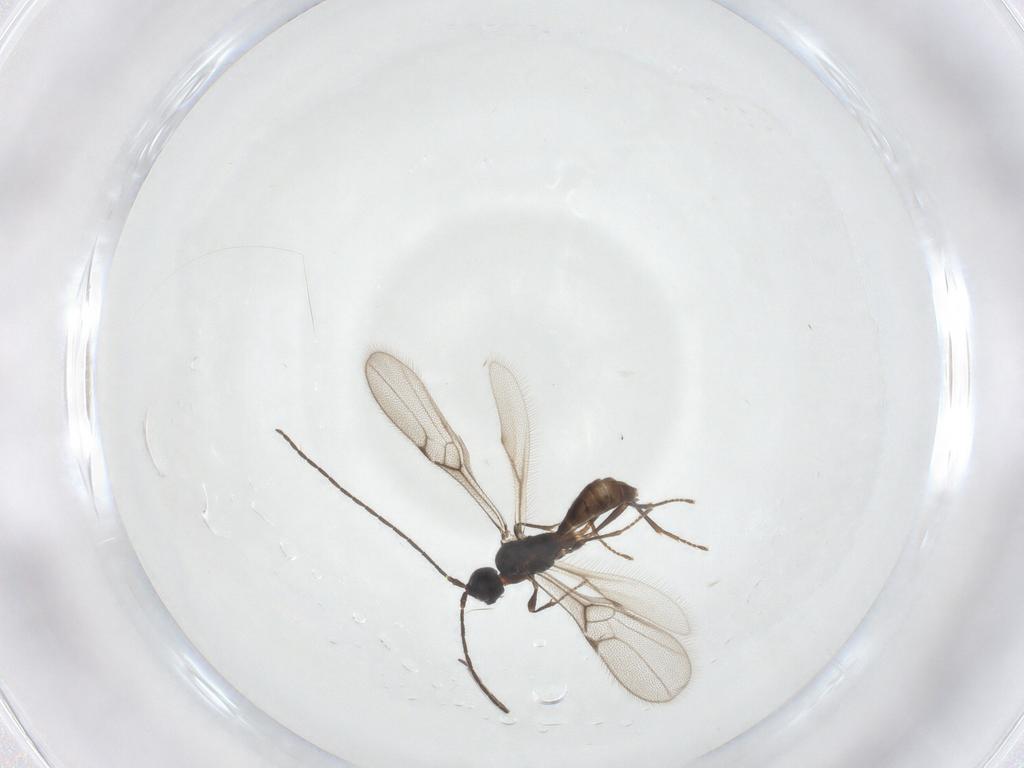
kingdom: Animalia
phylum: Arthropoda
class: Insecta
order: Hymenoptera
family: Braconidae
